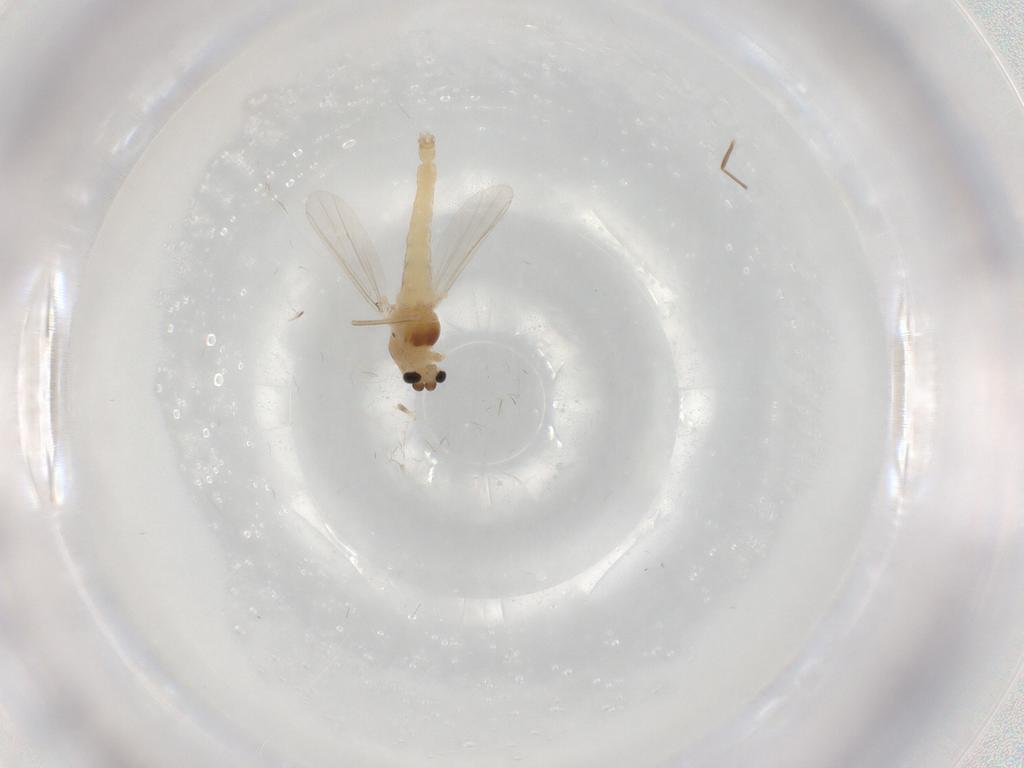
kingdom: Animalia
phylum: Arthropoda
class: Insecta
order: Diptera
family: Chironomidae
